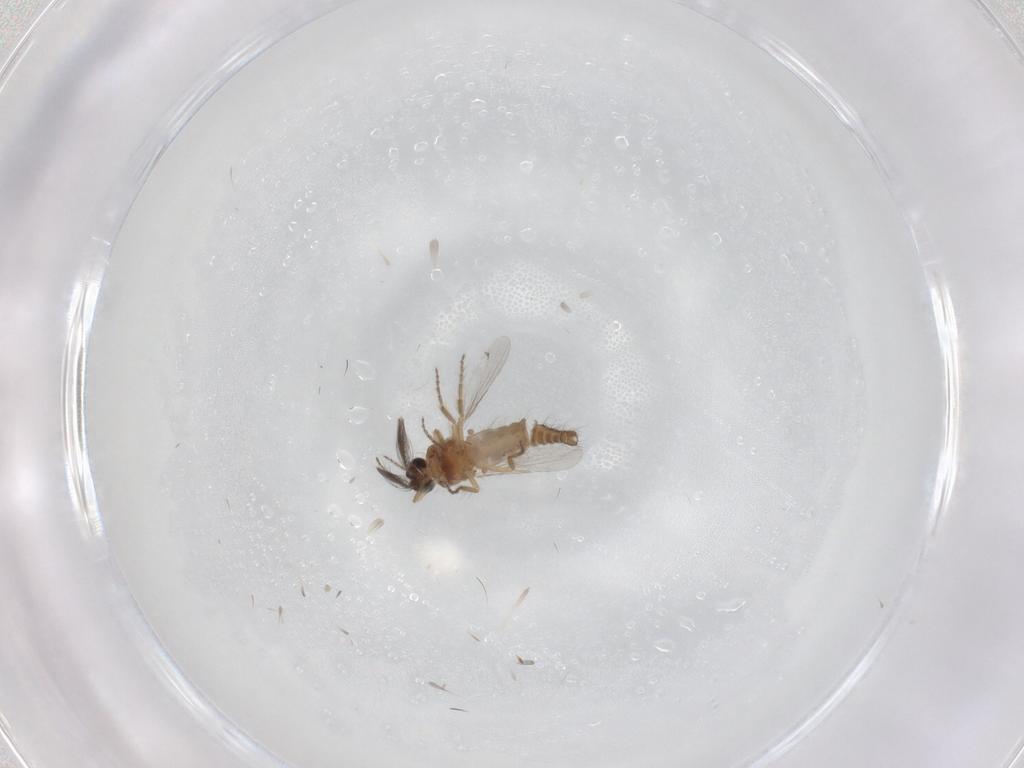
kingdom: Animalia
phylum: Arthropoda
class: Insecta
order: Diptera
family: Ceratopogonidae
